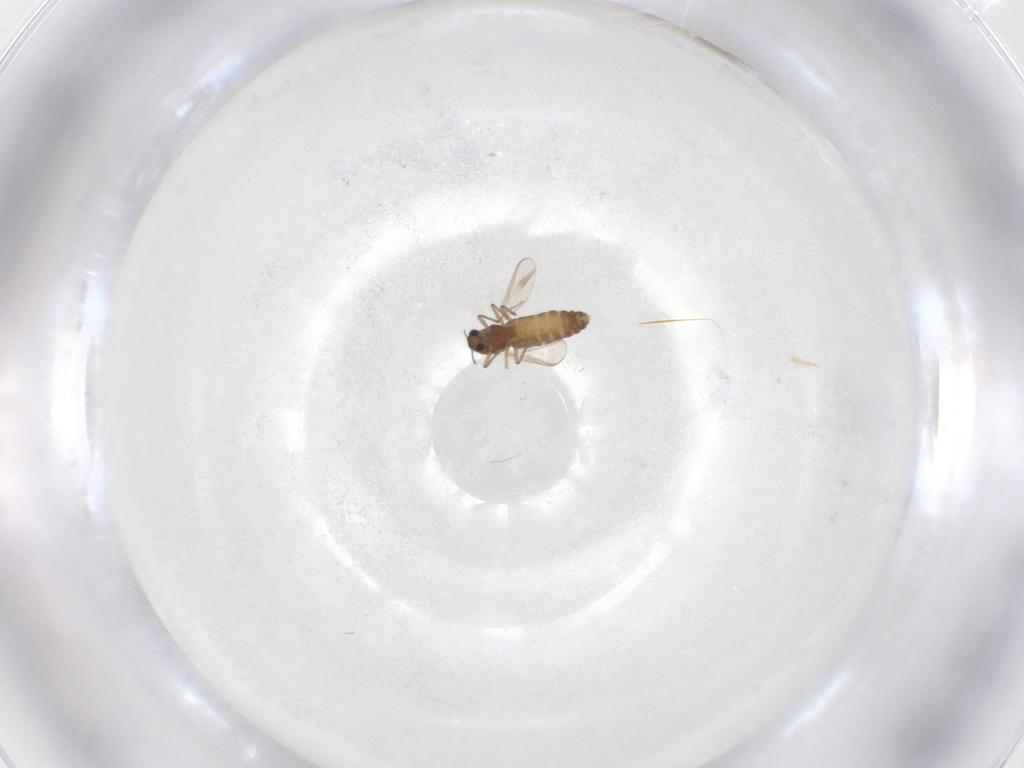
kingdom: Animalia
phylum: Arthropoda
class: Insecta
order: Diptera
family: Chironomidae
